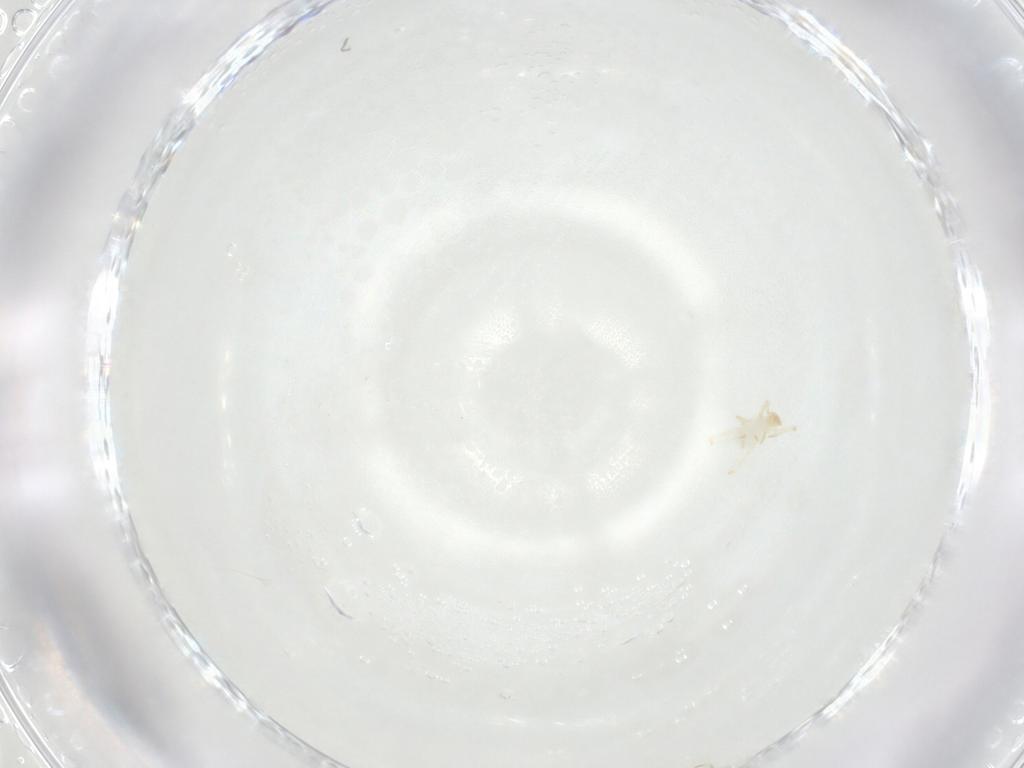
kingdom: Animalia
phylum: Arthropoda
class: Arachnida
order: Trombidiformes
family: Erythraeidae
